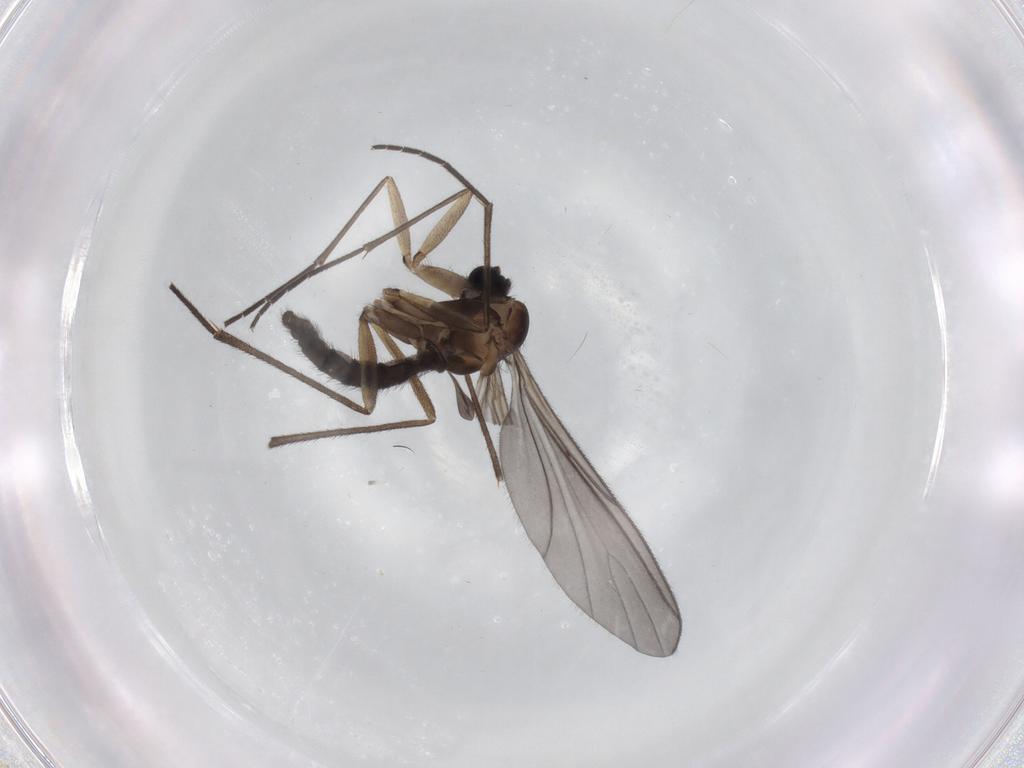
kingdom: Animalia
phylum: Arthropoda
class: Insecta
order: Diptera
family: Sciaridae
